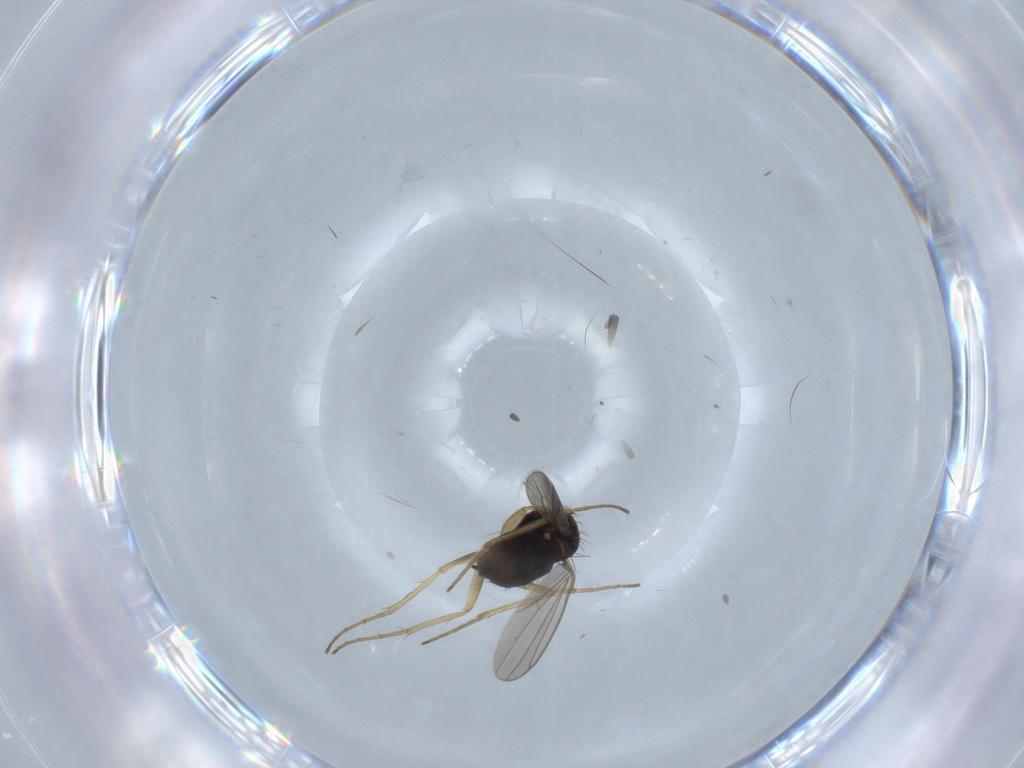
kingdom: Animalia
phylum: Arthropoda
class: Insecta
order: Diptera
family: Dolichopodidae
